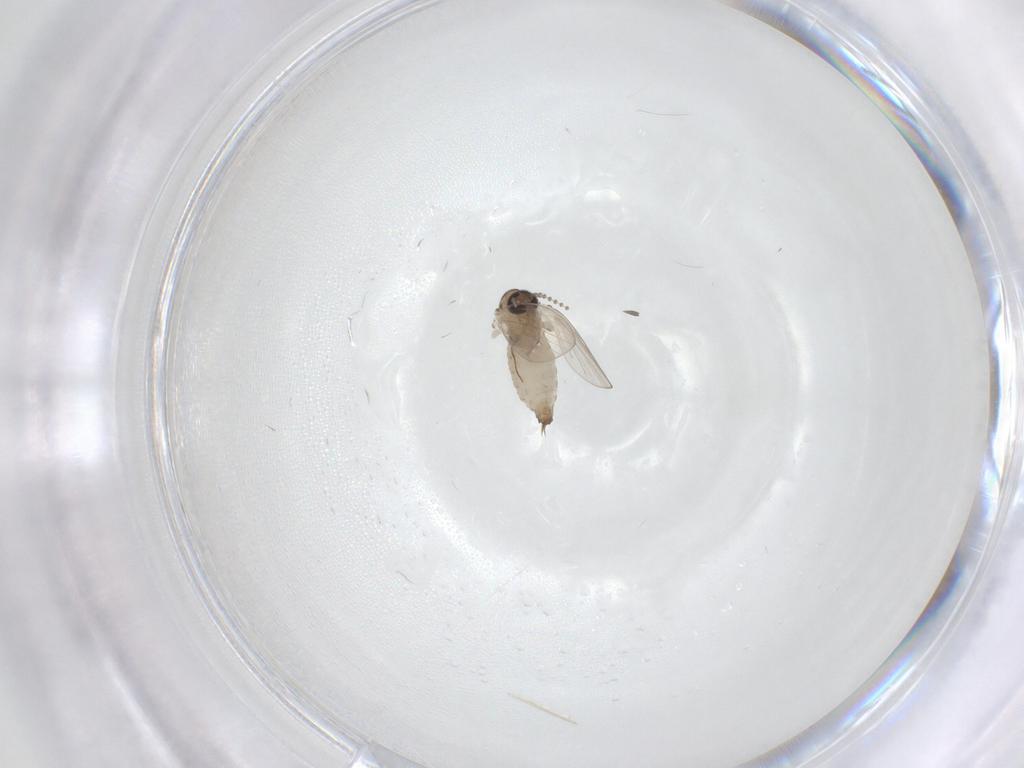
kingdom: Animalia
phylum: Arthropoda
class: Insecta
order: Diptera
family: Psychodidae
